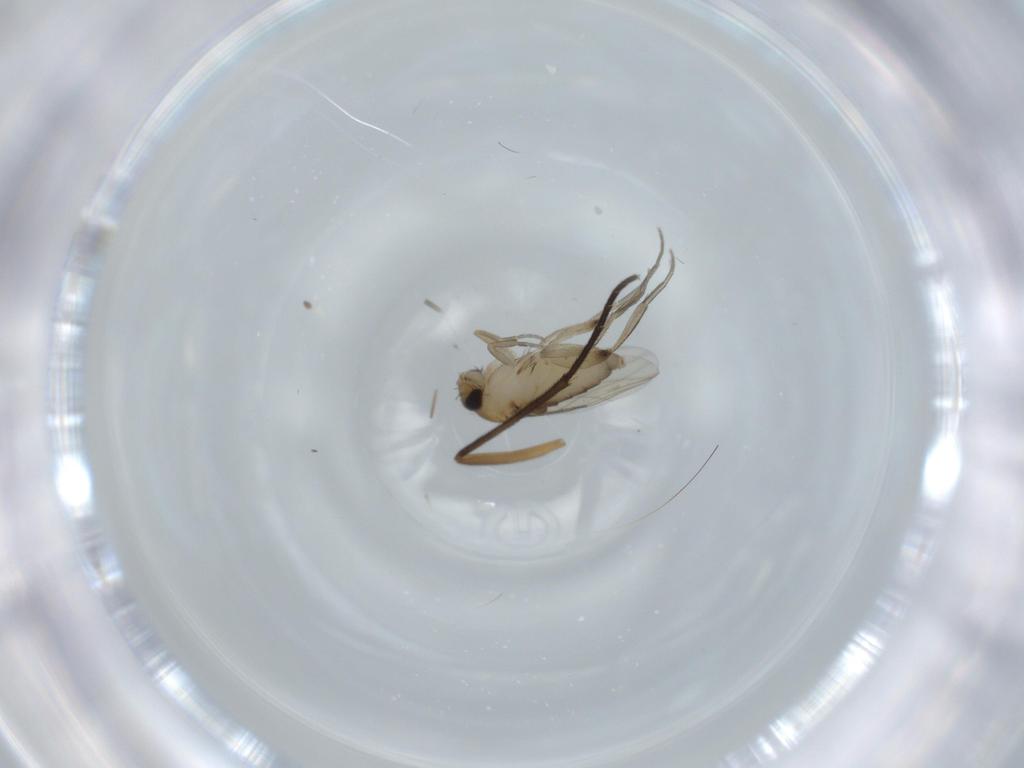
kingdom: Animalia
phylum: Arthropoda
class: Insecta
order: Diptera
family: Phoridae
